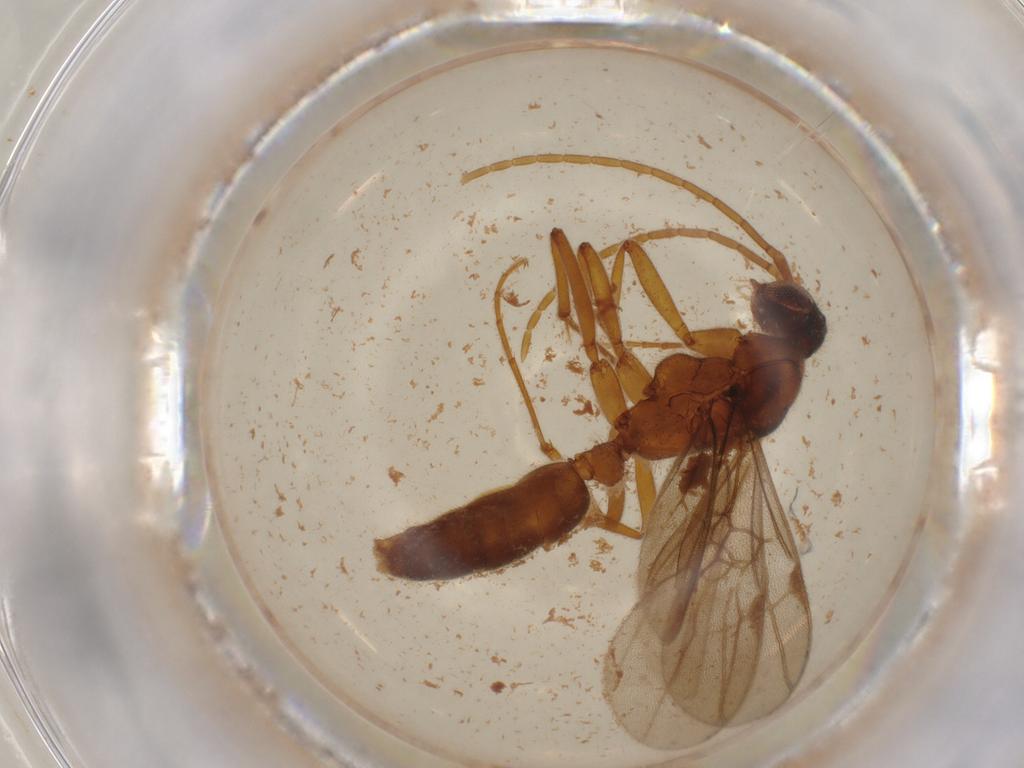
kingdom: Animalia
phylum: Arthropoda
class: Insecta
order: Hymenoptera
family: Formicidae
